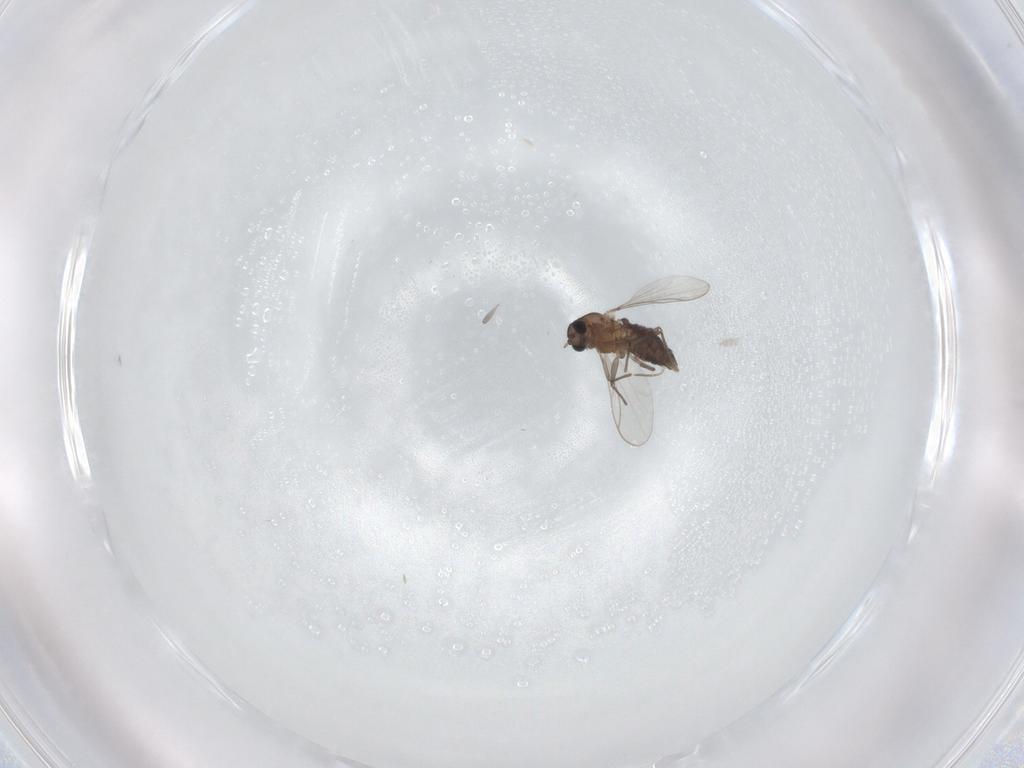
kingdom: Animalia
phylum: Arthropoda
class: Insecta
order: Diptera
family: Chironomidae
